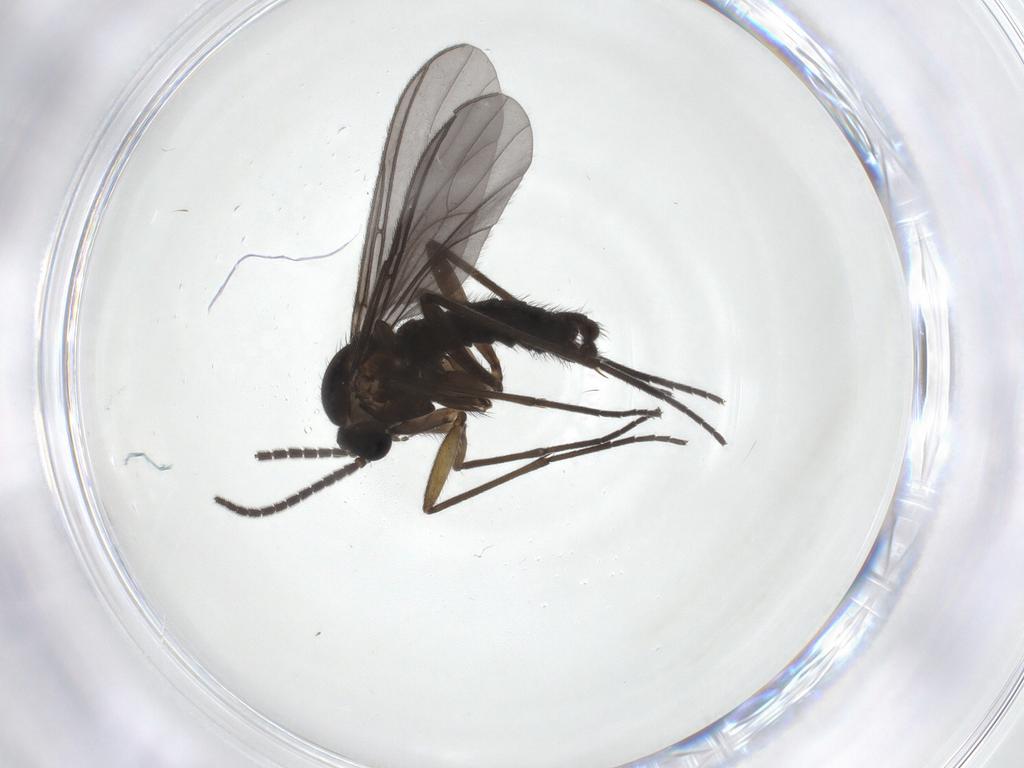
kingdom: Animalia
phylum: Arthropoda
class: Insecta
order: Diptera
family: Sciaridae
